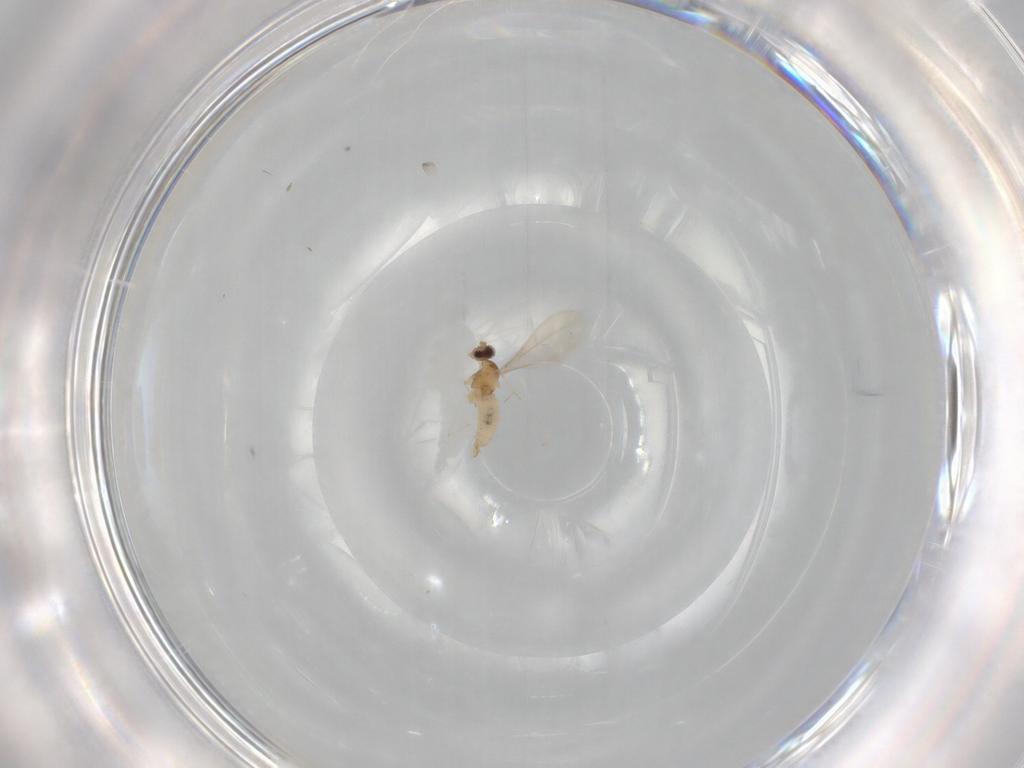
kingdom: Animalia
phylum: Arthropoda
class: Insecta
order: Diptera
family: Cecidomyiidae
